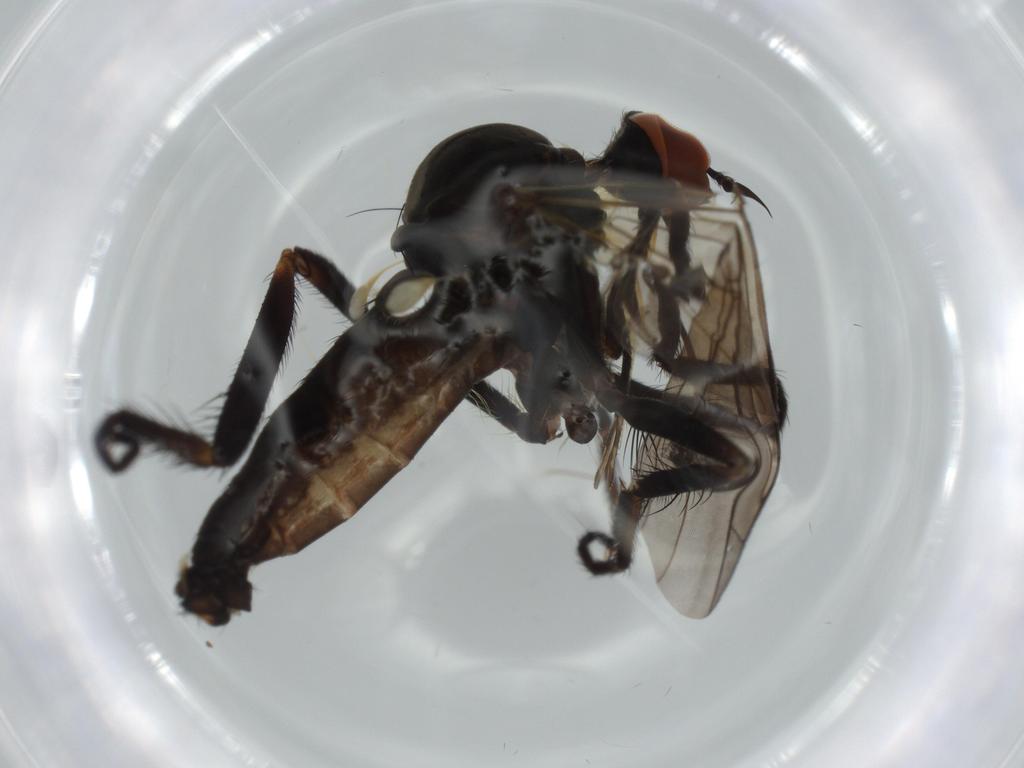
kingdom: Animalia
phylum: Arthropoda
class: Insecta
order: Diptera
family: Empididae
